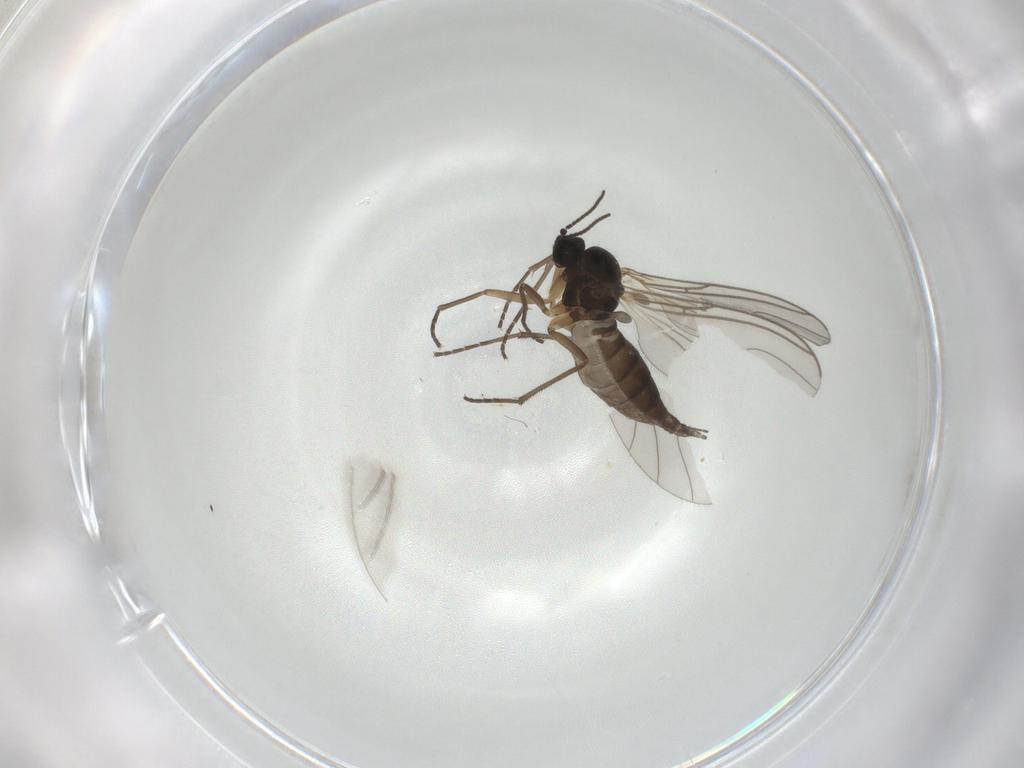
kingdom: Animalia
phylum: Arthropoda
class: Insecta
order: Diptera
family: Sciaridae
